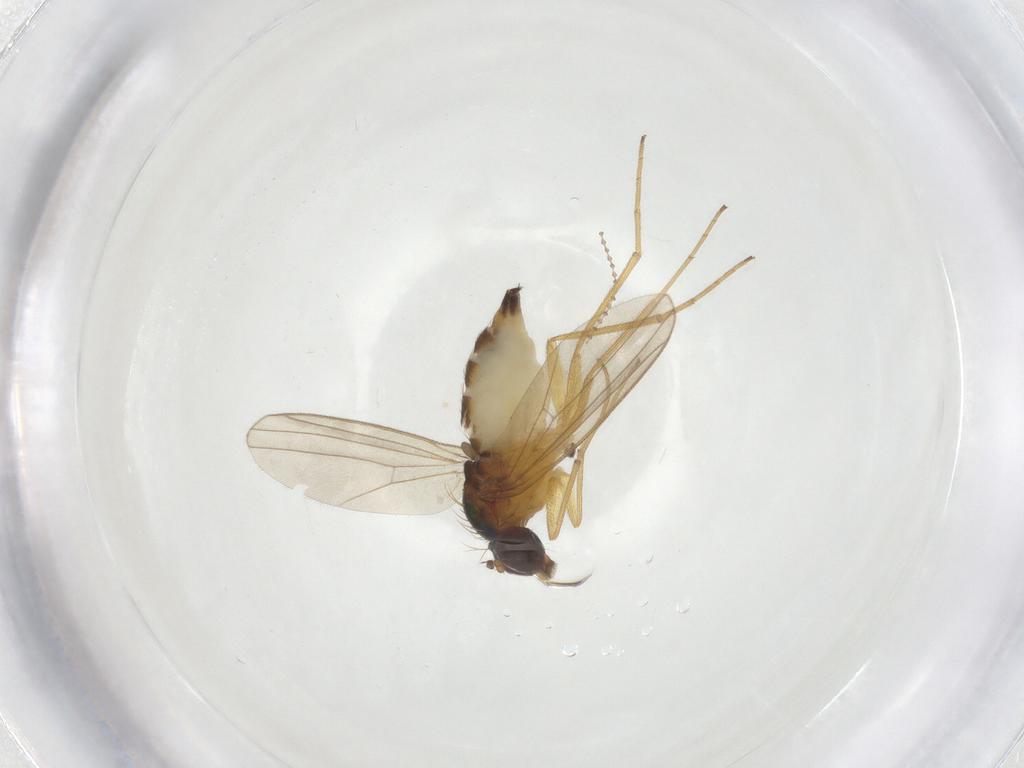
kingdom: Animalia
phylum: Arthropoda
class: Insecta
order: Diptera
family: Dolichopodidae
